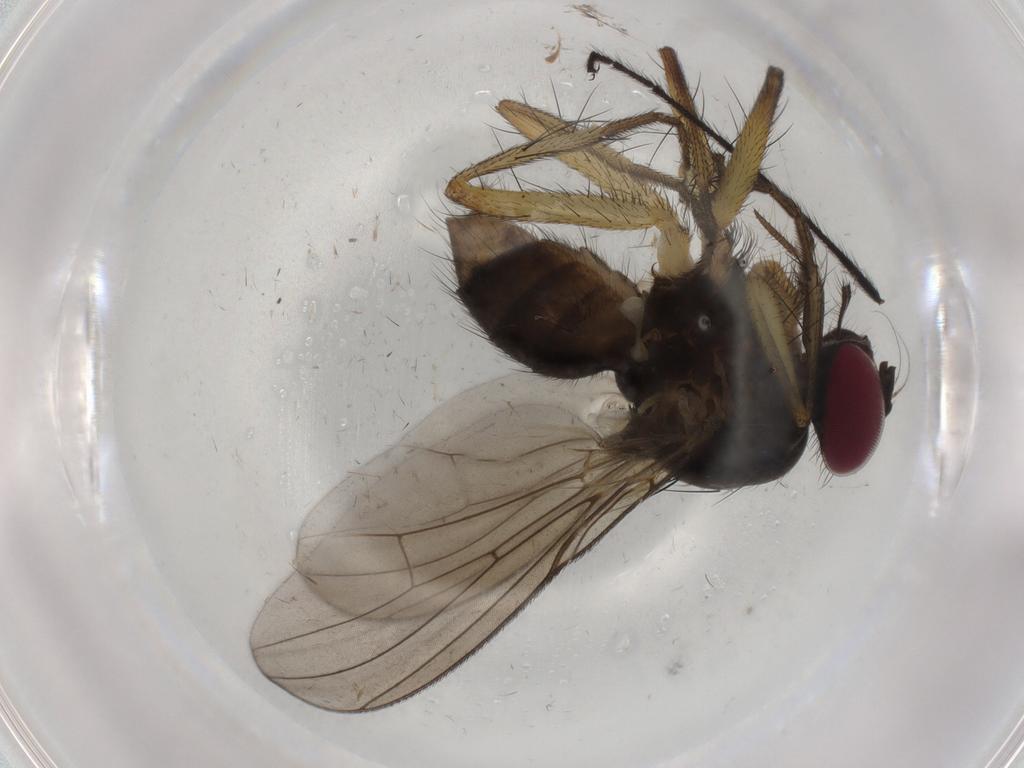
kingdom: Animalia
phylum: Arthropoda
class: Insecta
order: Diptera
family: Anthomyiidae
